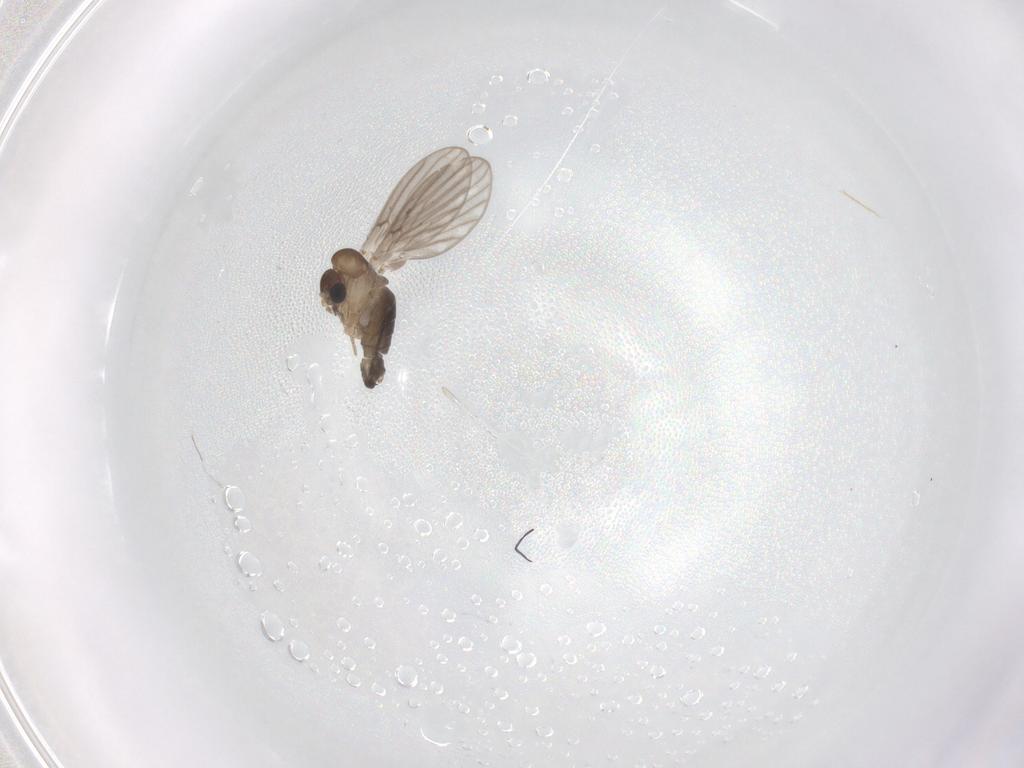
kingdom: Animalia
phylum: Arthropoda
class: Insecta
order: Diptera
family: Psychodidae
